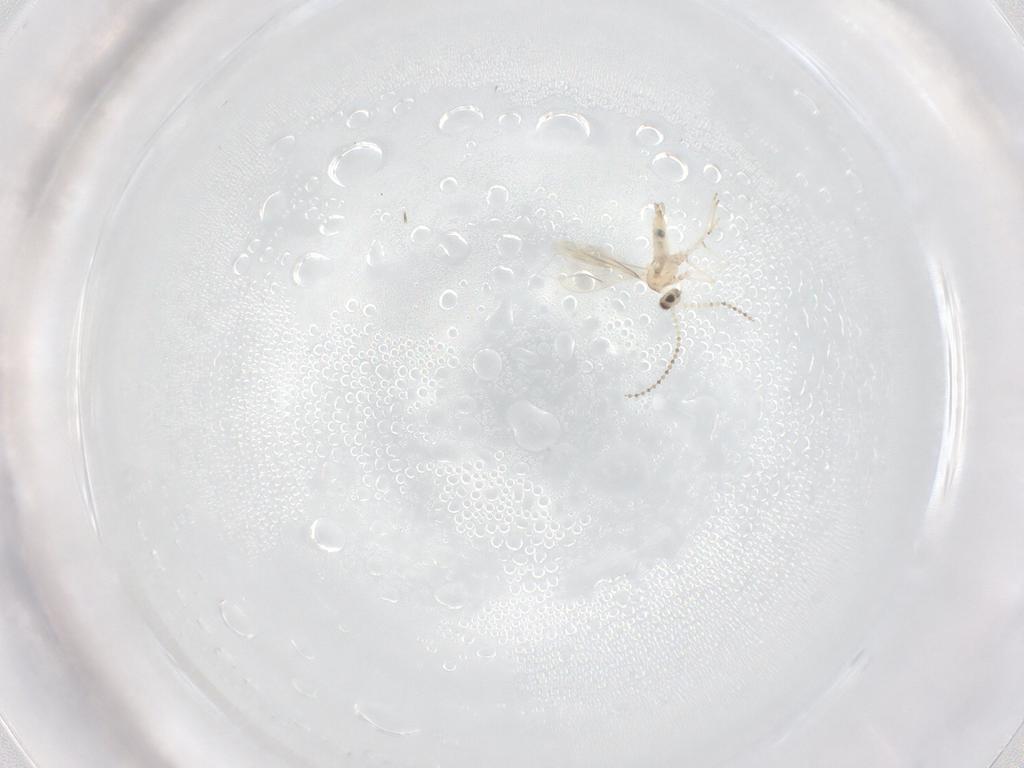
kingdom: Animalia
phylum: Arthropoda
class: Insecta
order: Diptera
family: Cecidomyiidae
